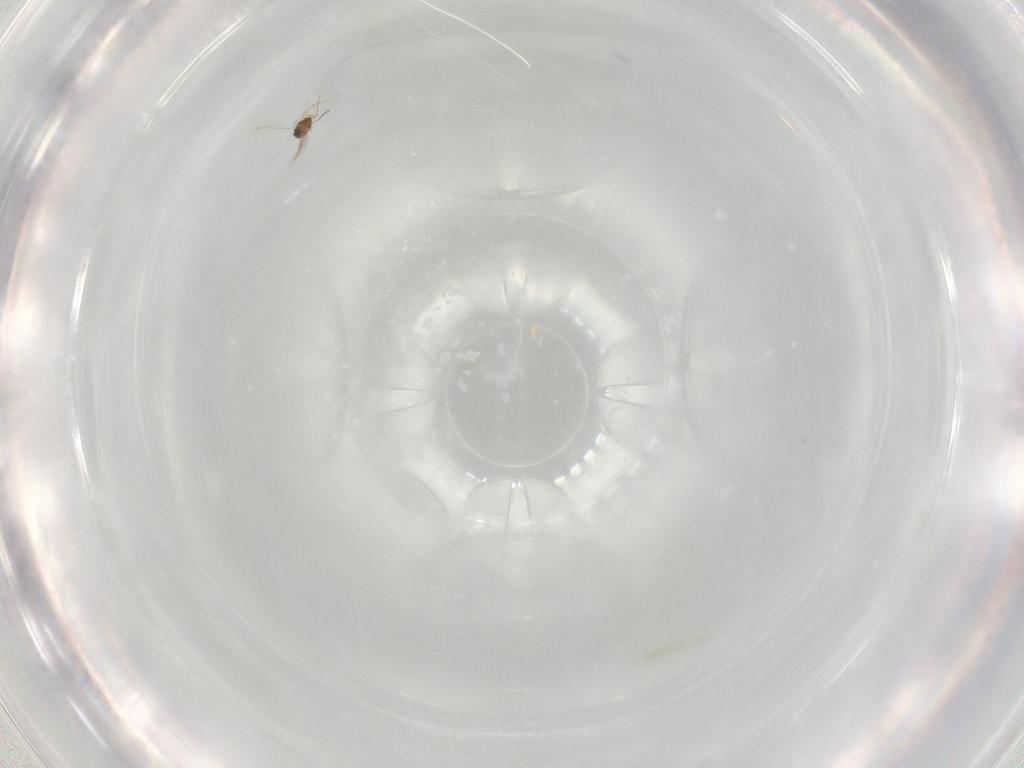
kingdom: Animalia
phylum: Arthropoda
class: Insecta
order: Hymenoptera
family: Mymaridae
